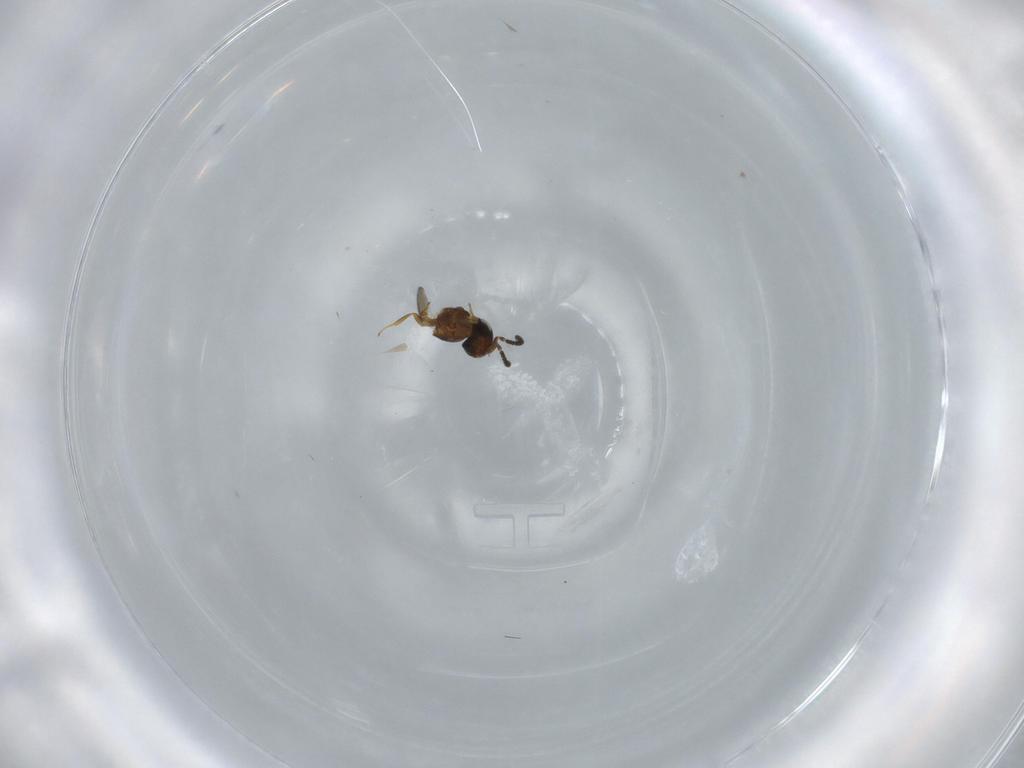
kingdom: Animalia
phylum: Arthropoda
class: Insecta
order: Hymenoptera
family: Scelionidae
